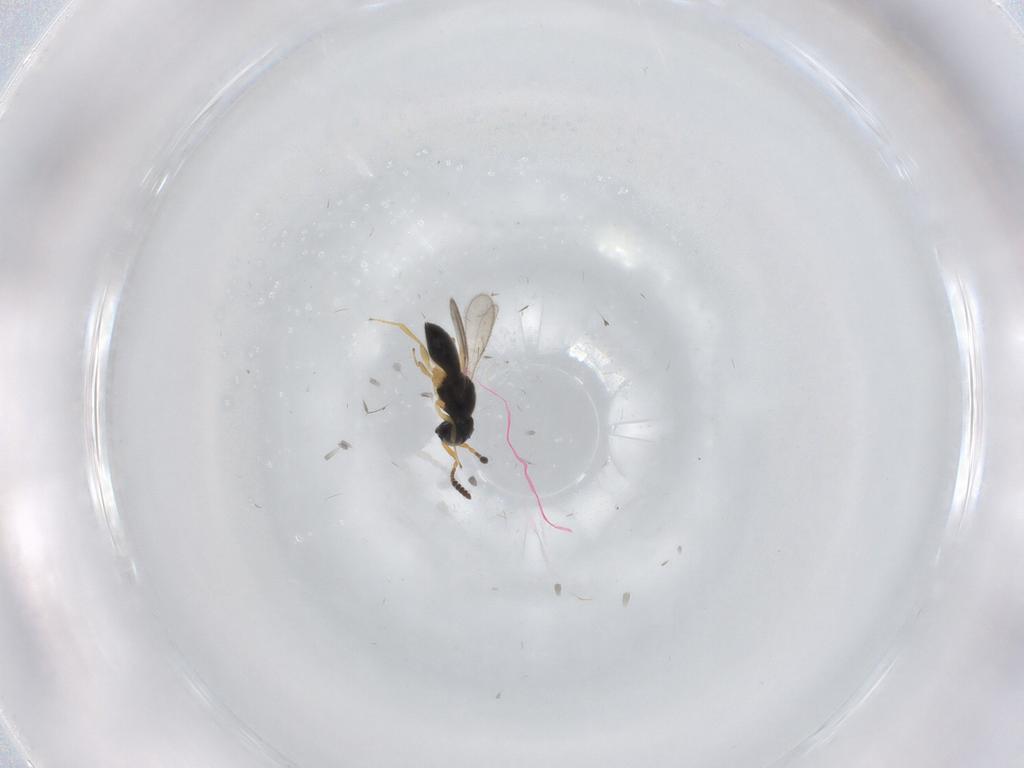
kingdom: Animalia
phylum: Arthropoda
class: Insecta
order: Hymenoptera
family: Scelionidae
